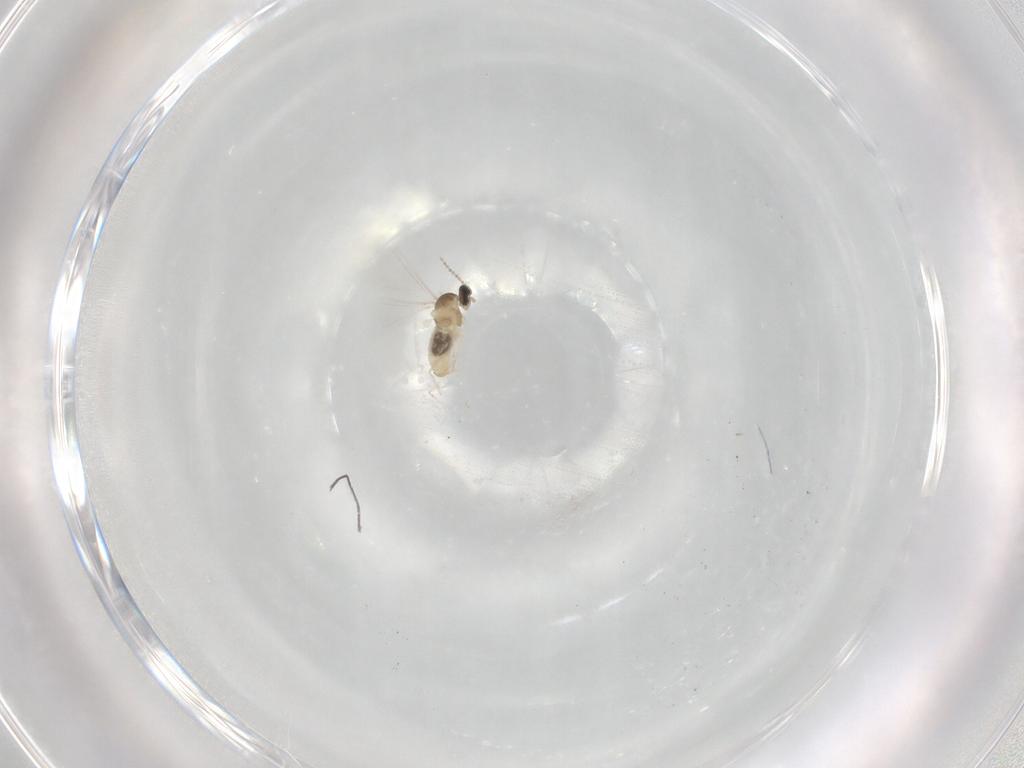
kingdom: Animalia
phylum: Arthropoda
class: Insecta
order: Diptera
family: Cecidomyiidae
